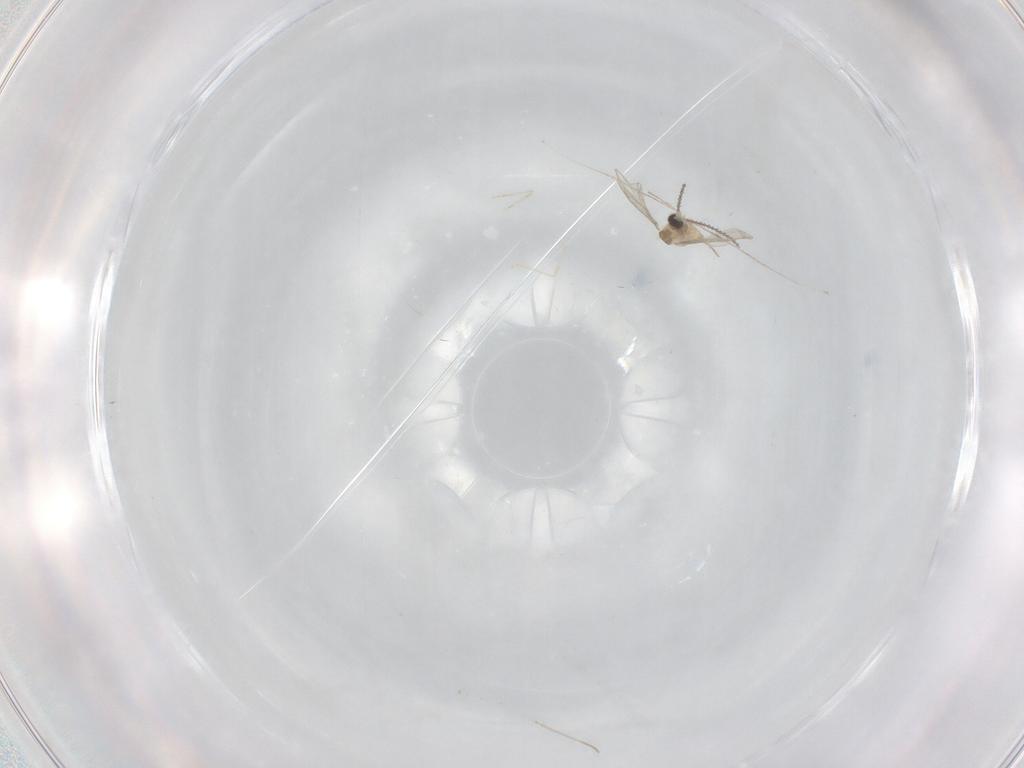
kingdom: Animalia
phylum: Arthropoda
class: Insecta
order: Diptera
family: Cecidomyiidae
